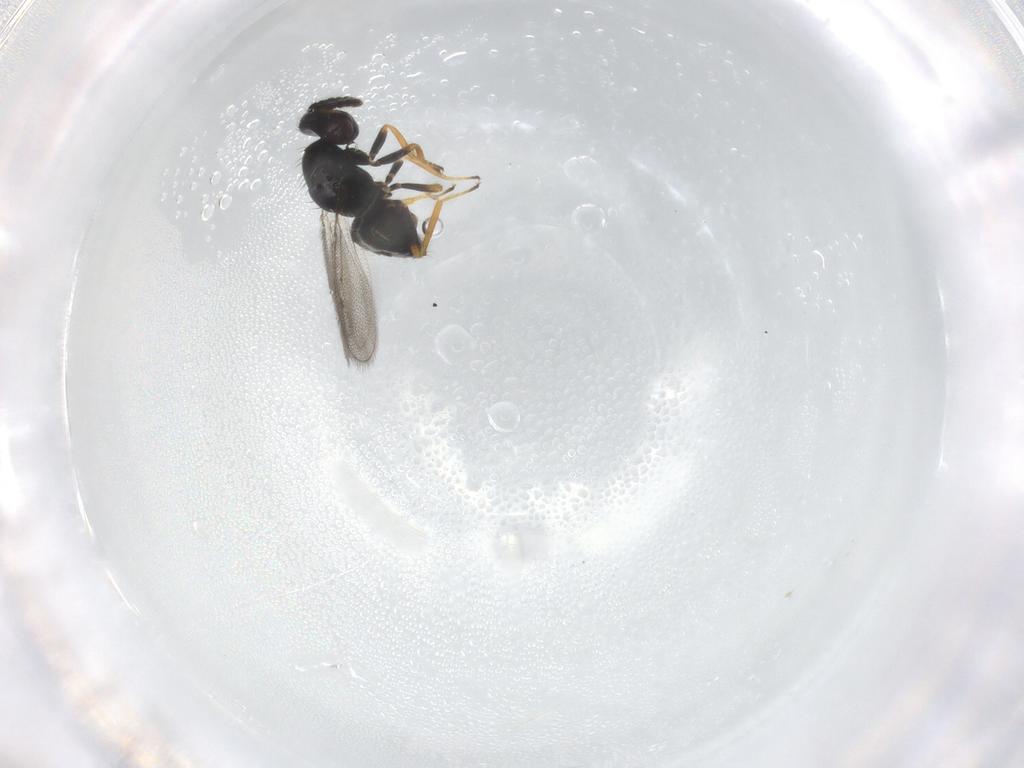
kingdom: Animalia
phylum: Arthropoda
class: Insecta
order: Hymenoptera
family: Eulophidae
